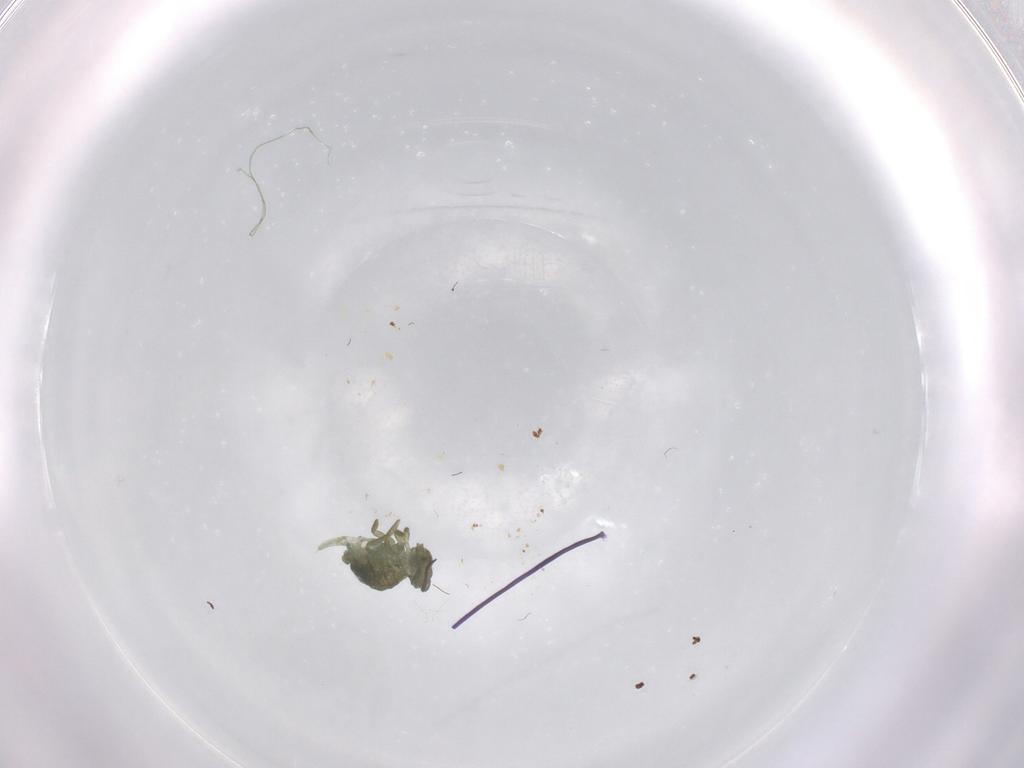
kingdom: Animalia
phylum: Arthropoda
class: Collembola
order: Symphypleona
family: Sminthuridae
